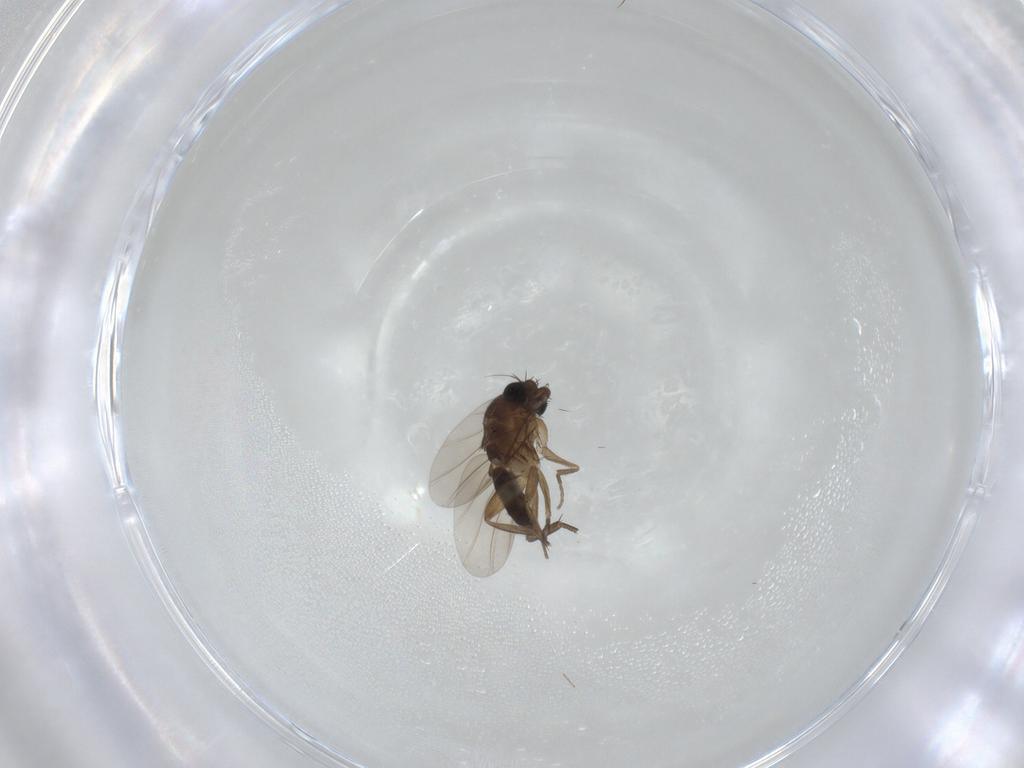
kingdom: Animalia
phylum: Arthropoda
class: Insecta
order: Diptera
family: Phoridae
